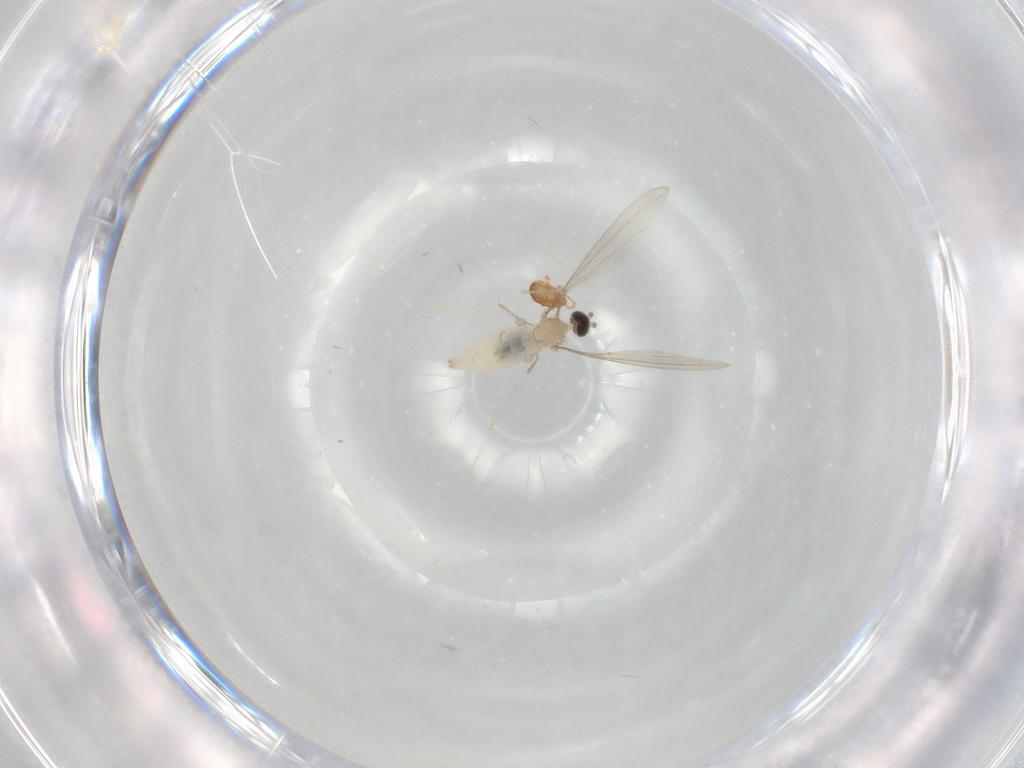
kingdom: Animalia
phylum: Arthropoda
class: Insecta
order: Diptera
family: Cecidomyiidae
